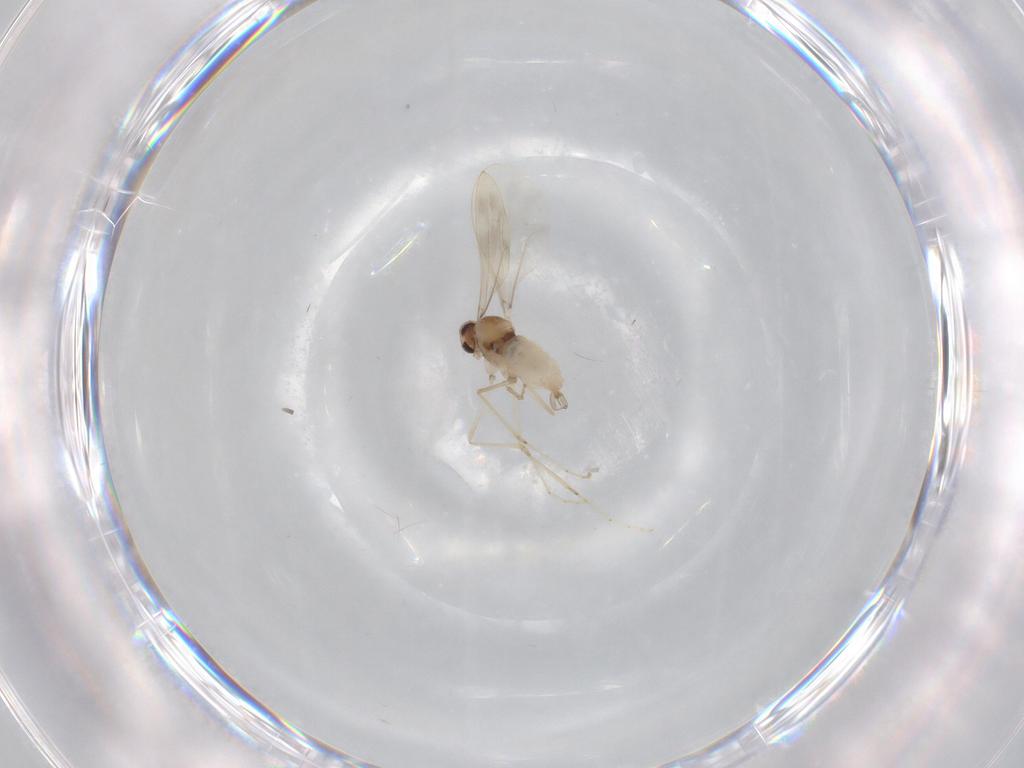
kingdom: Animalia
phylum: Arthropoda
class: Insecta
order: Diptera
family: Cecidomyiidae
